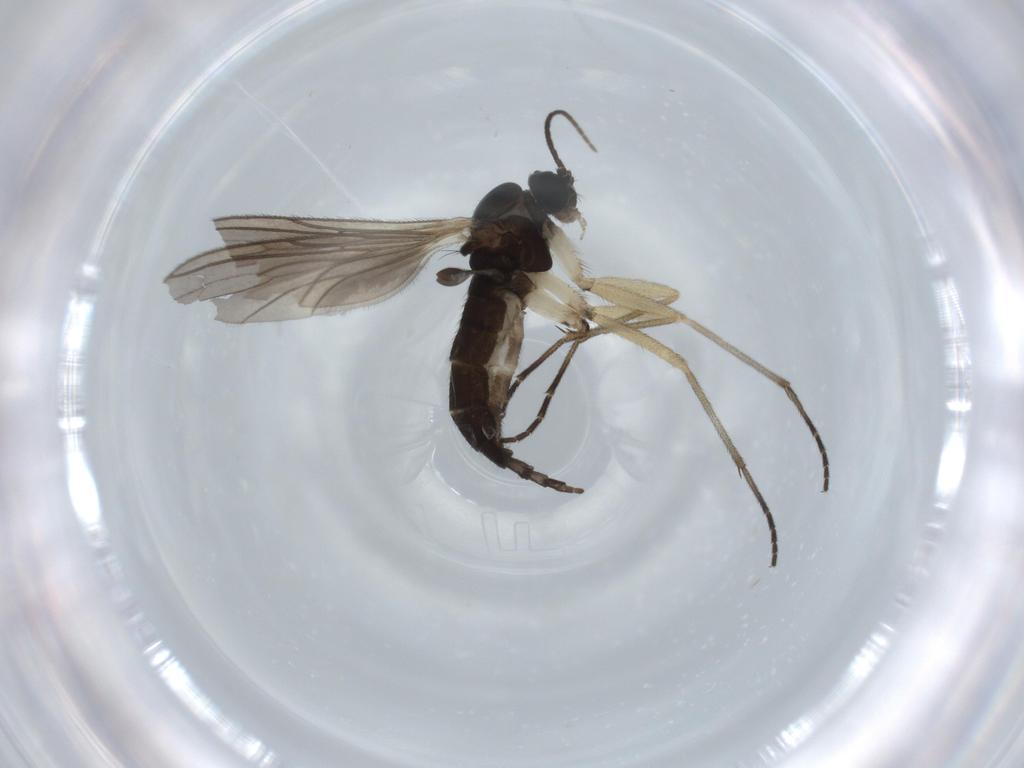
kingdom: Animalia
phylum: Arthropoda
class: Insecta
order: Diptera
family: Sciaridae
